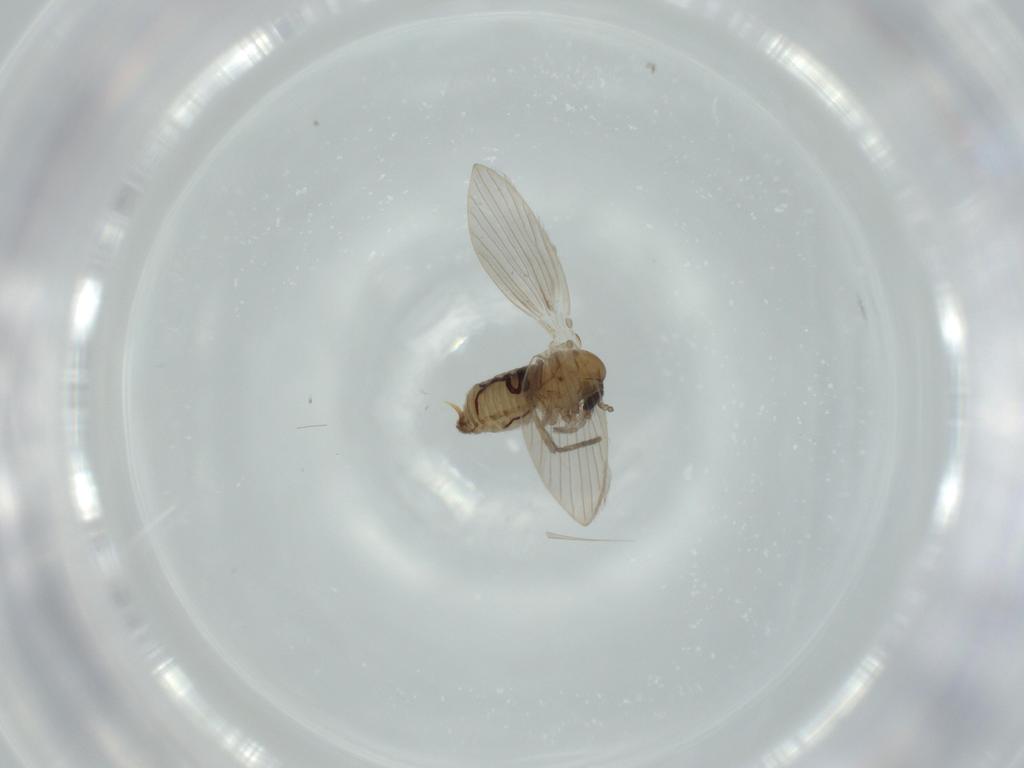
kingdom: Animalia
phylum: Arthropoda
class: Insecta
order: Diptera
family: Psychodidae
